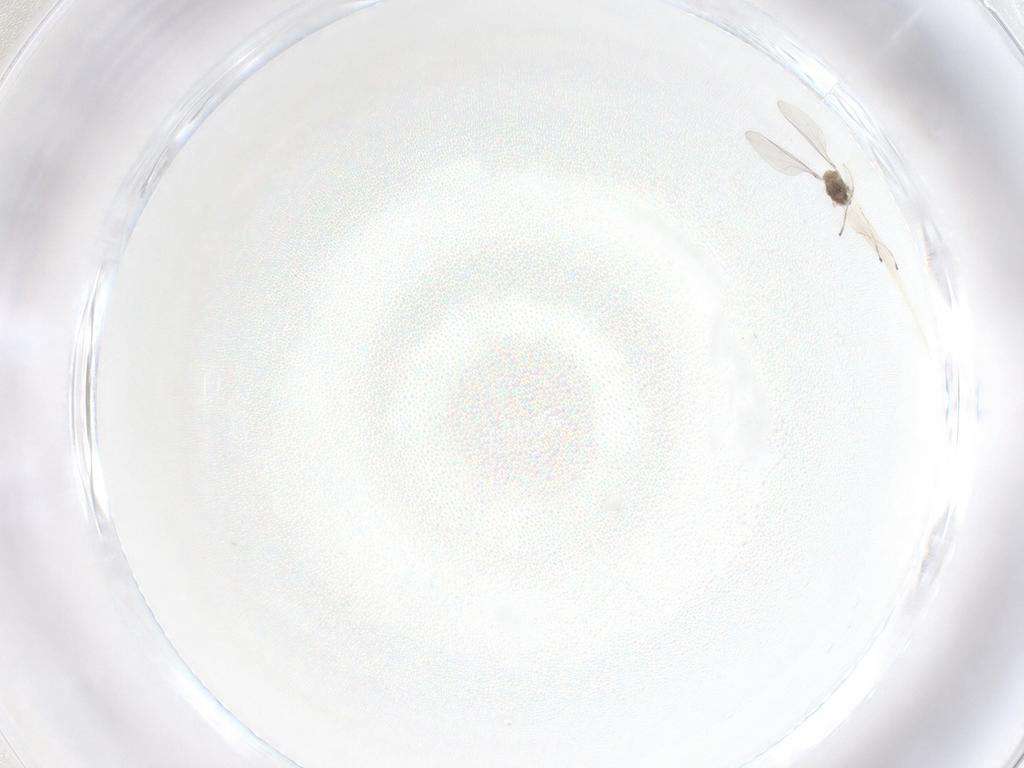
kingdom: Animalia
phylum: Arthropoda
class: Insecta
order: Diptera
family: Cecidomyiidae
